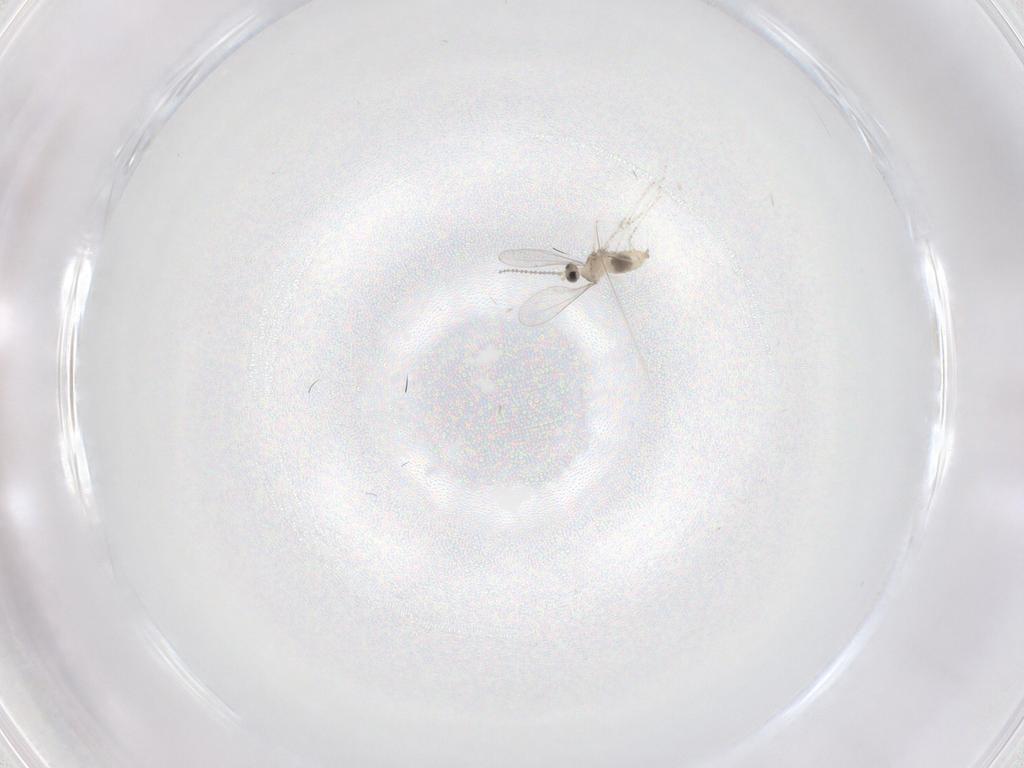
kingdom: Animalia
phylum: Arthropoda
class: Insecta
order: Diptera
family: Cecidomyiidae
